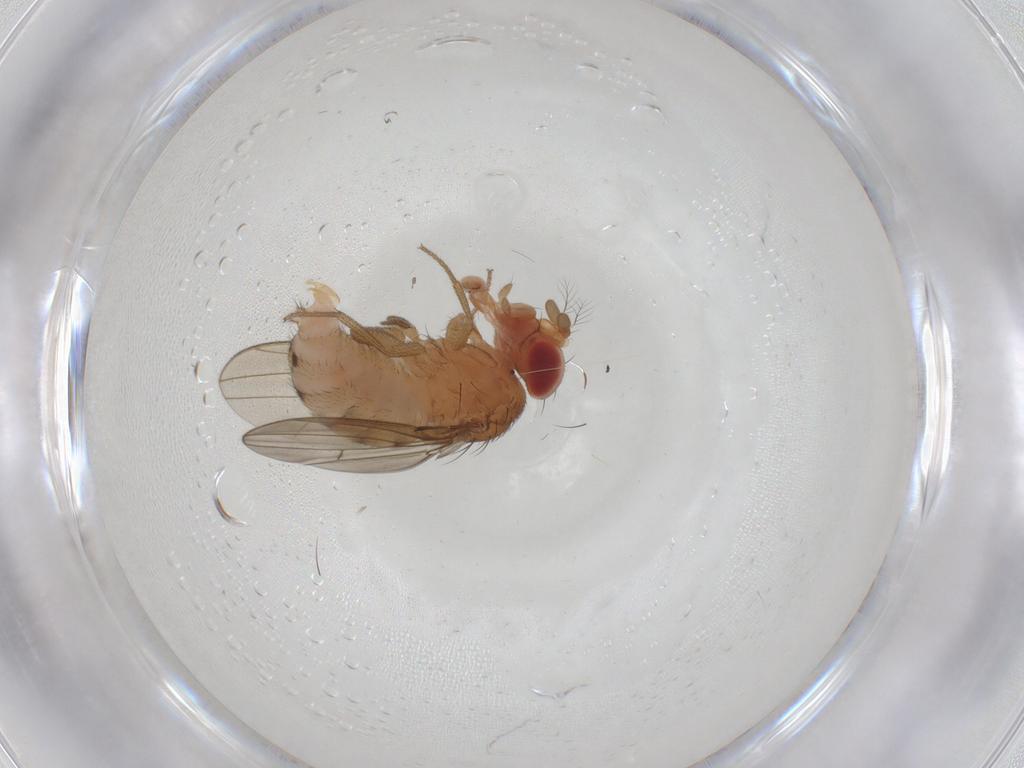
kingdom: Animalia
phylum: Arthropoda
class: Insecta
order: Diptera
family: Drosophilidae
